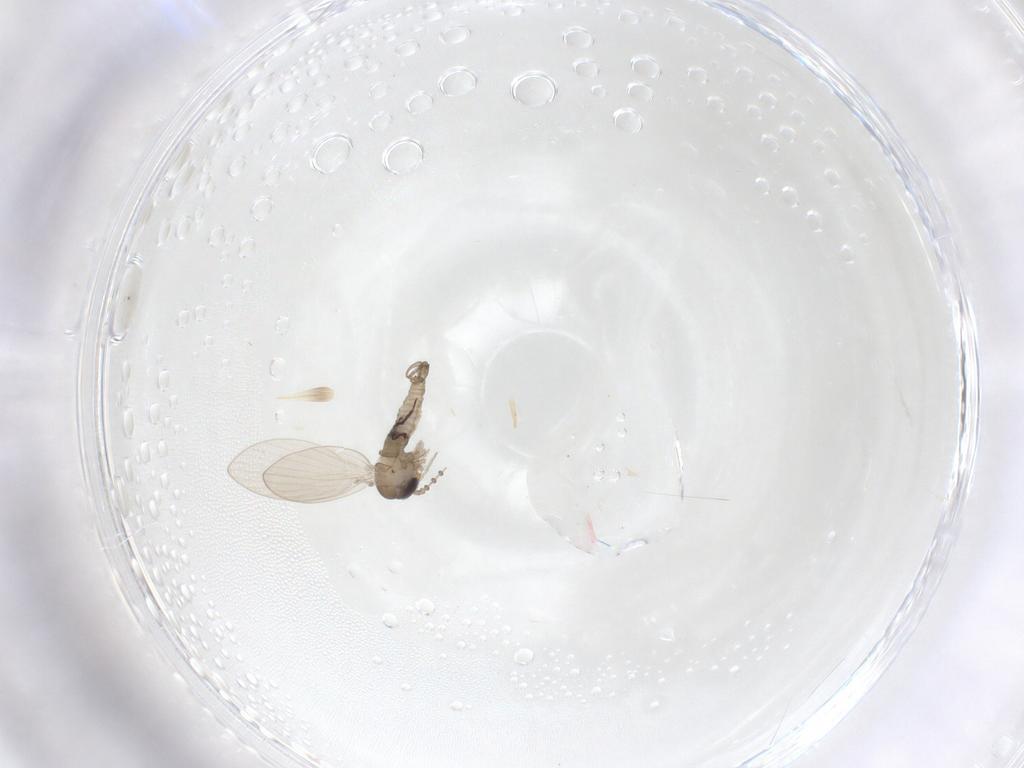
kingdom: Animalia
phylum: Arthropoda
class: Insecta
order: Diptera
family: Psychodidae
